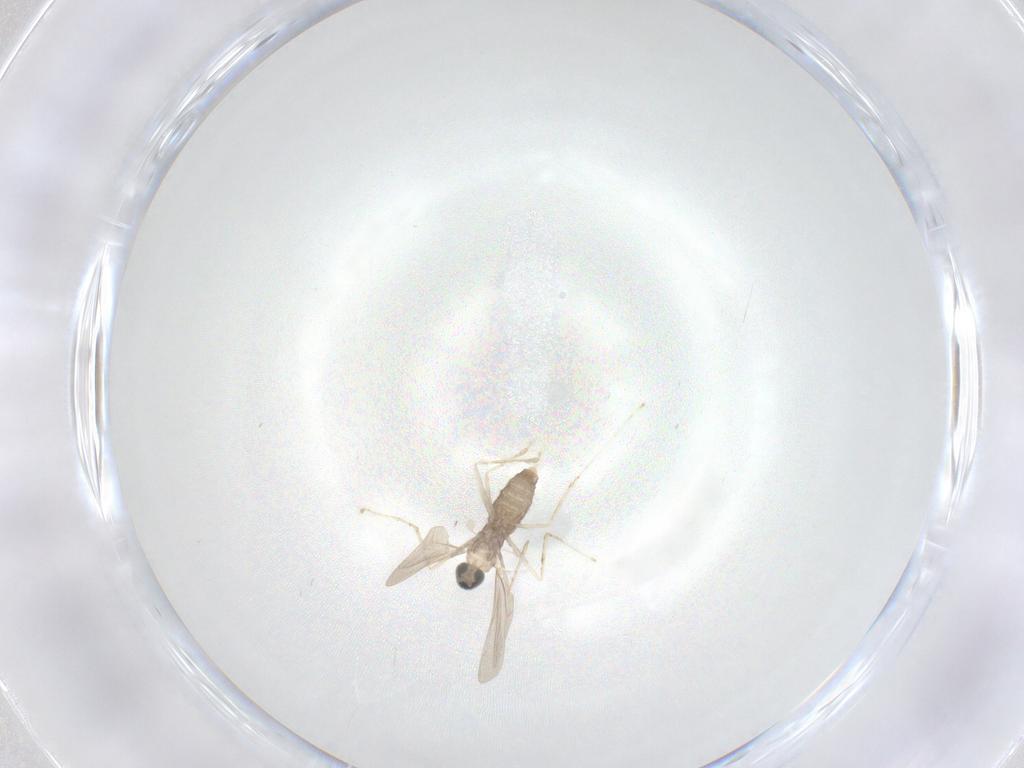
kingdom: Animalia
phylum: Arthropoda
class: Insecta
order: Diptera
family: Cecidomyiidae
